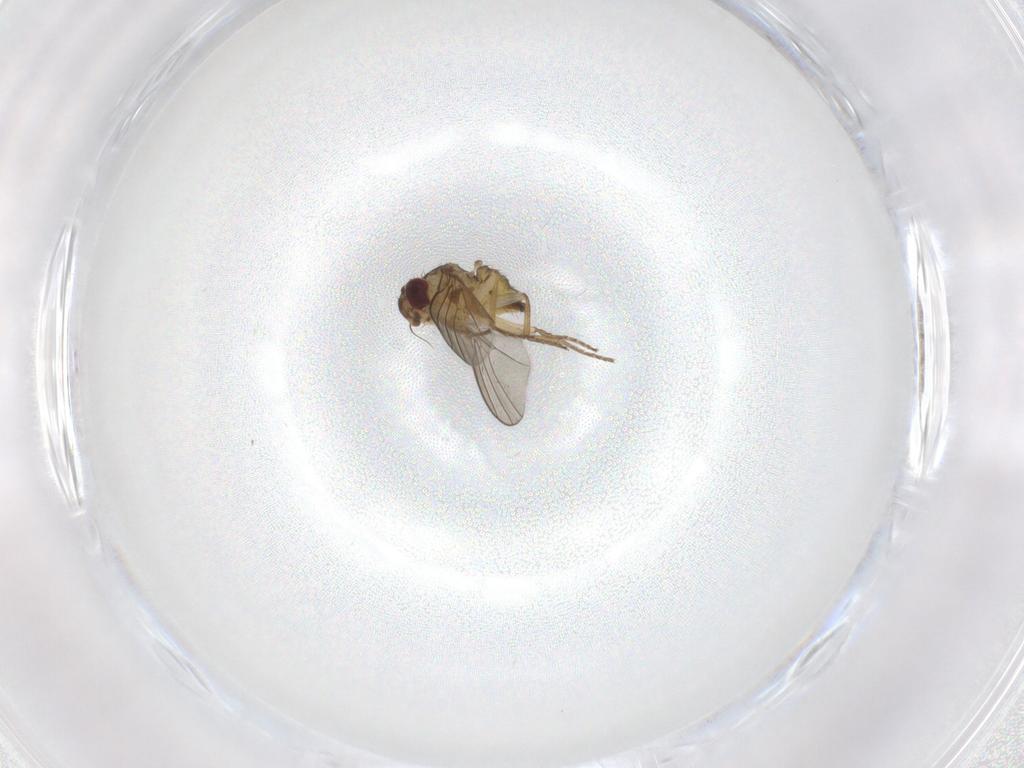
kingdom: Animalia
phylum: Arthropoda
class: Insecta
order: Diptera
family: Agromyzidae
